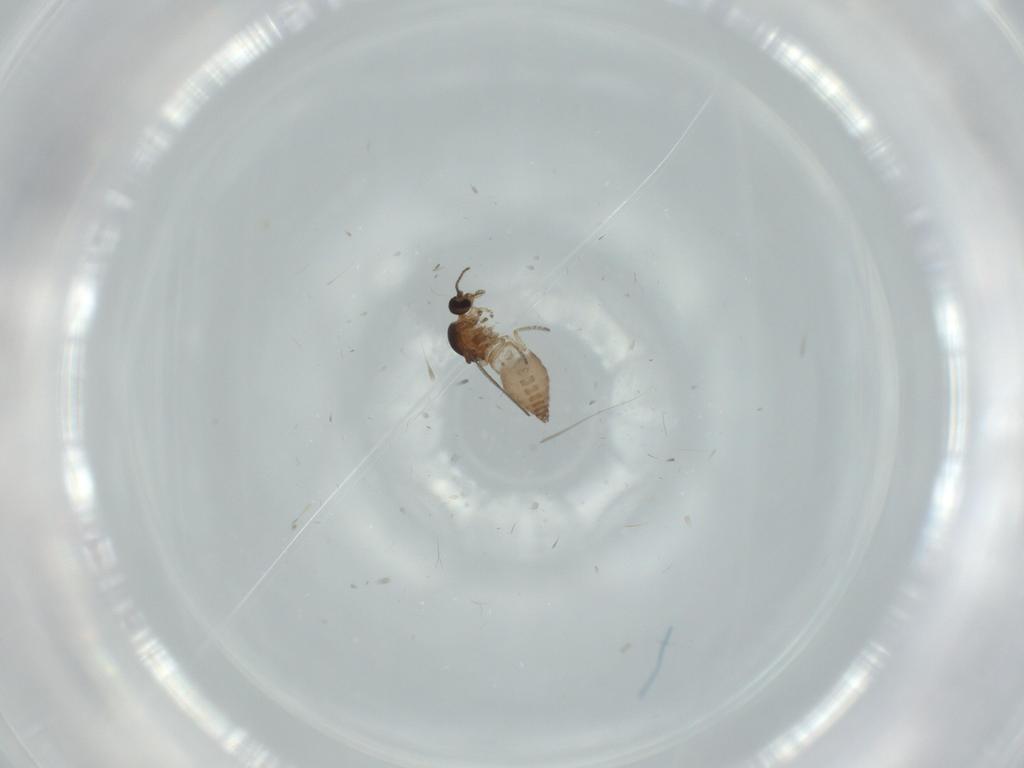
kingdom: Animalia
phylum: Arthropoda
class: Insecta
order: Diptera
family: Ceratopogonidae
